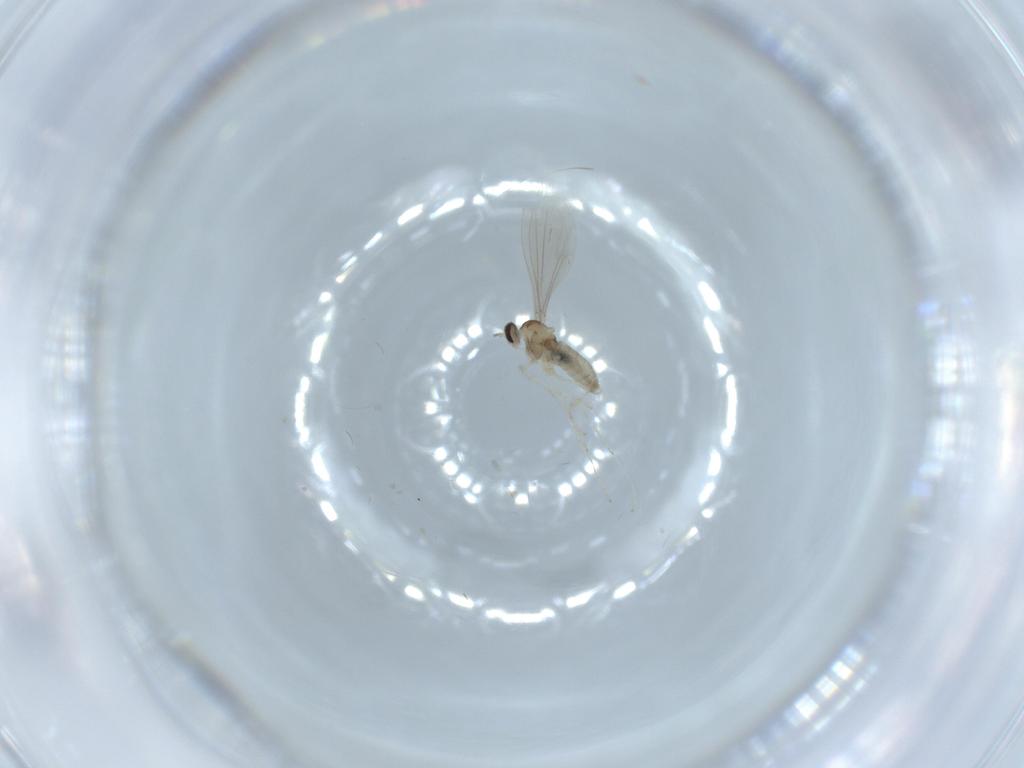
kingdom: Animalia
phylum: Arthropoda
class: Insecta
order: Diptera
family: Cecidomyiidae
